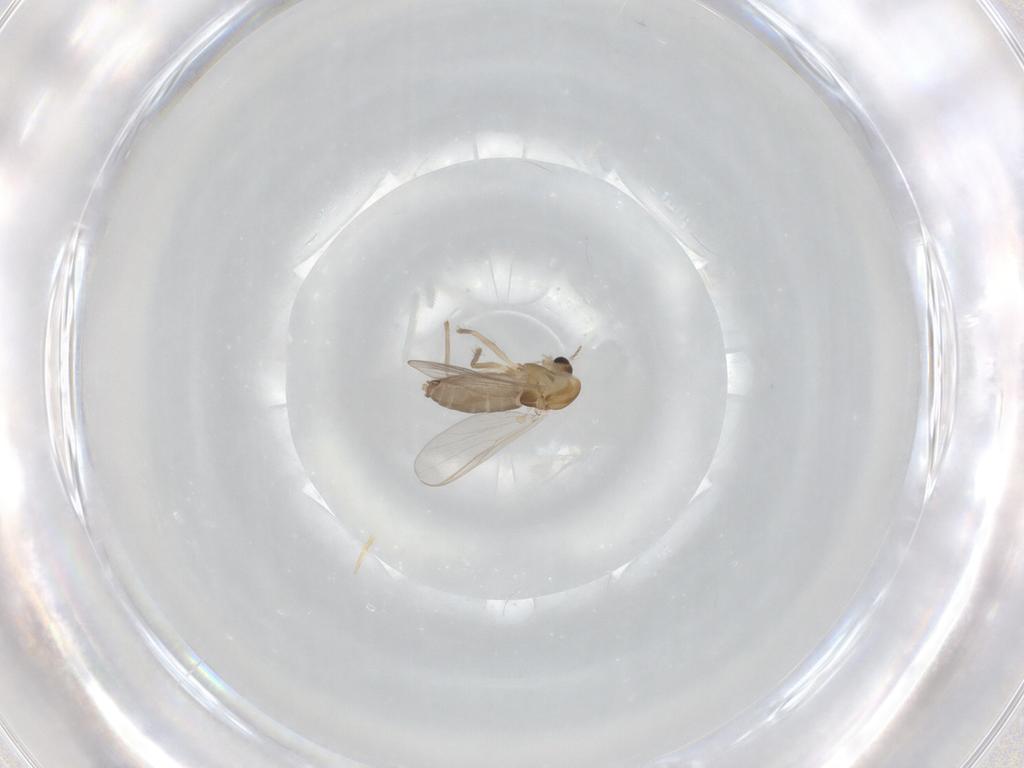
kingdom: Animalia
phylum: Arthropoda
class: Insecta
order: Diptera
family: Chironomidae
